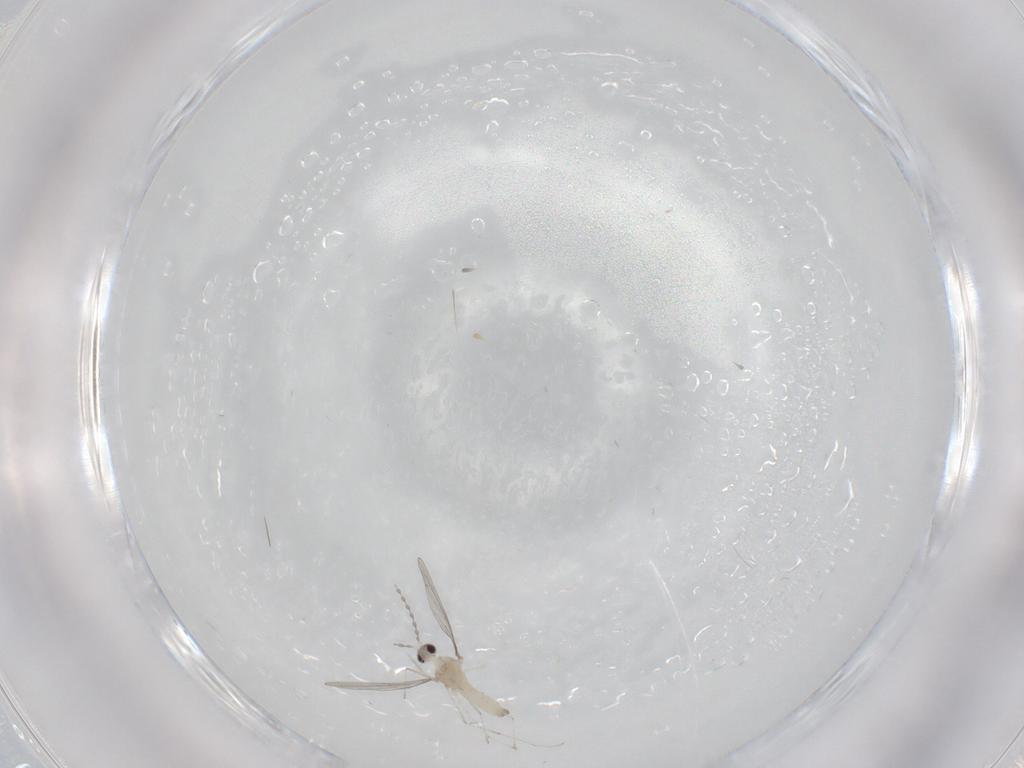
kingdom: Animalia
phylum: Arthropoda
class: Insecta
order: Diptera
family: Cecidomyiidae
